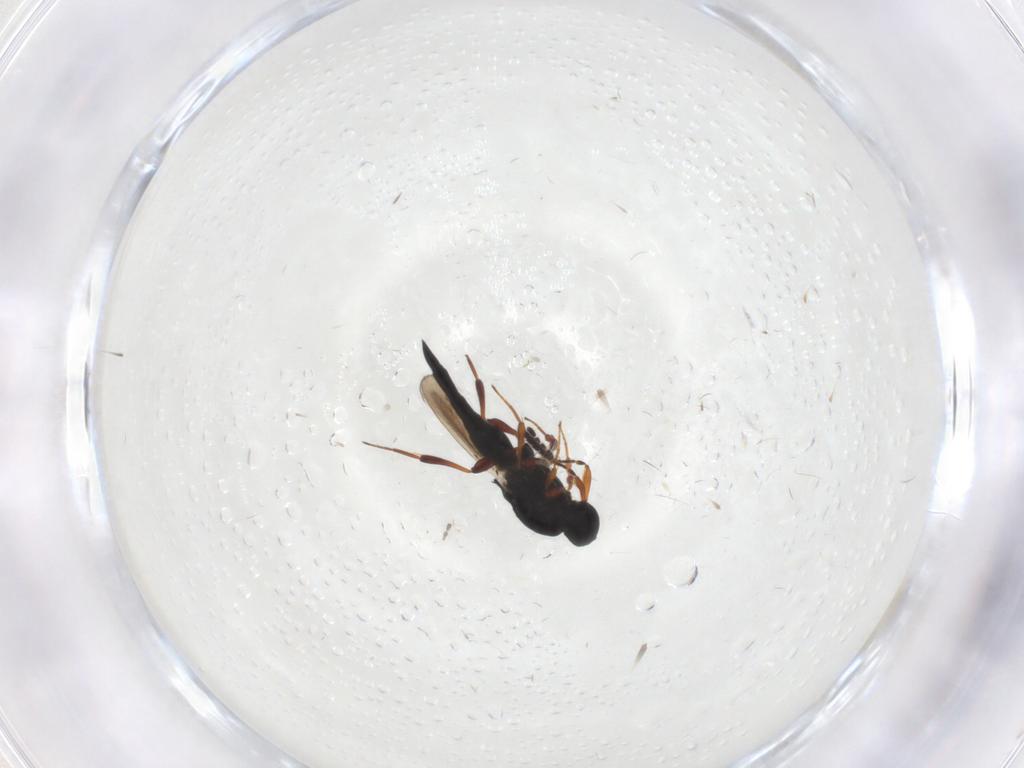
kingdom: Animalia
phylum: Arthropoda
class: Insecta
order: Hymenoptera
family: Platygastridae
